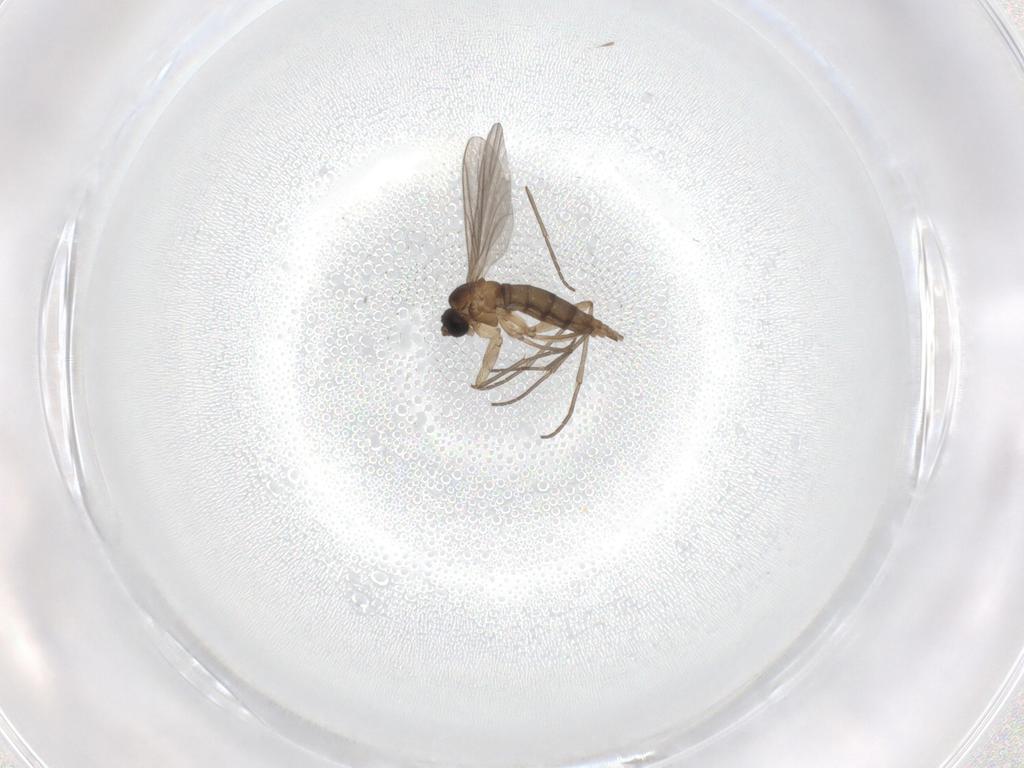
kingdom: Animalia
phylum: Arthropoda
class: Insecta
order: Diptera
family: Sciaridae
